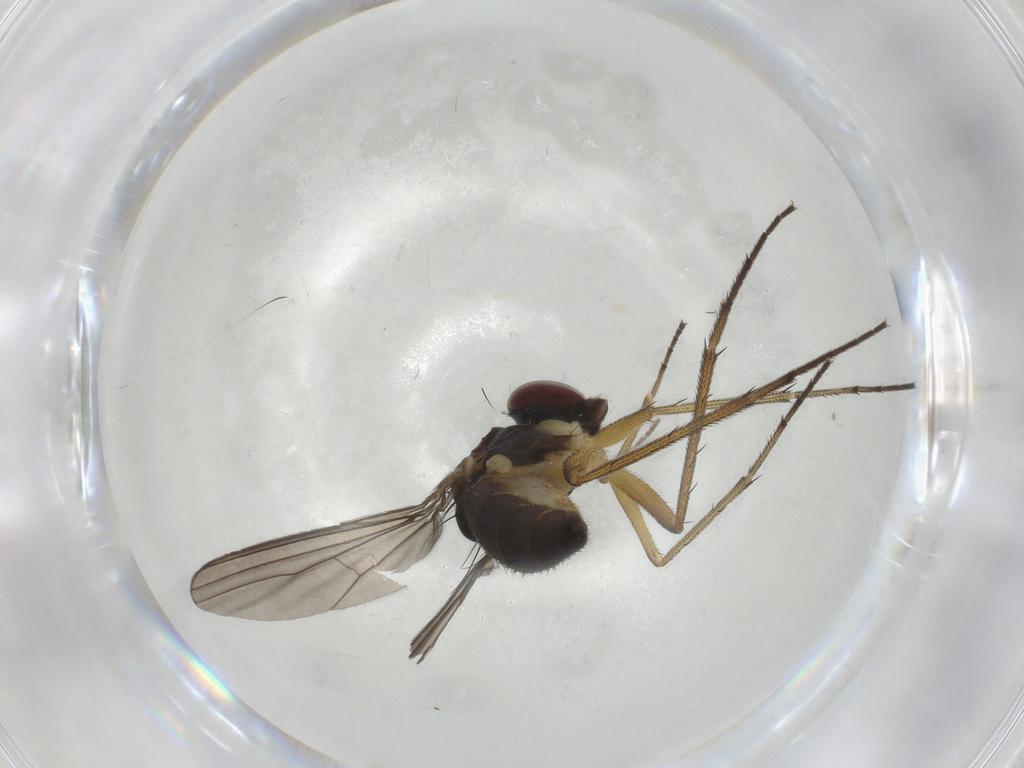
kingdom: Animalia
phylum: Arthropoda
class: Insecta
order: Diptera
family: Dolichopodidae
